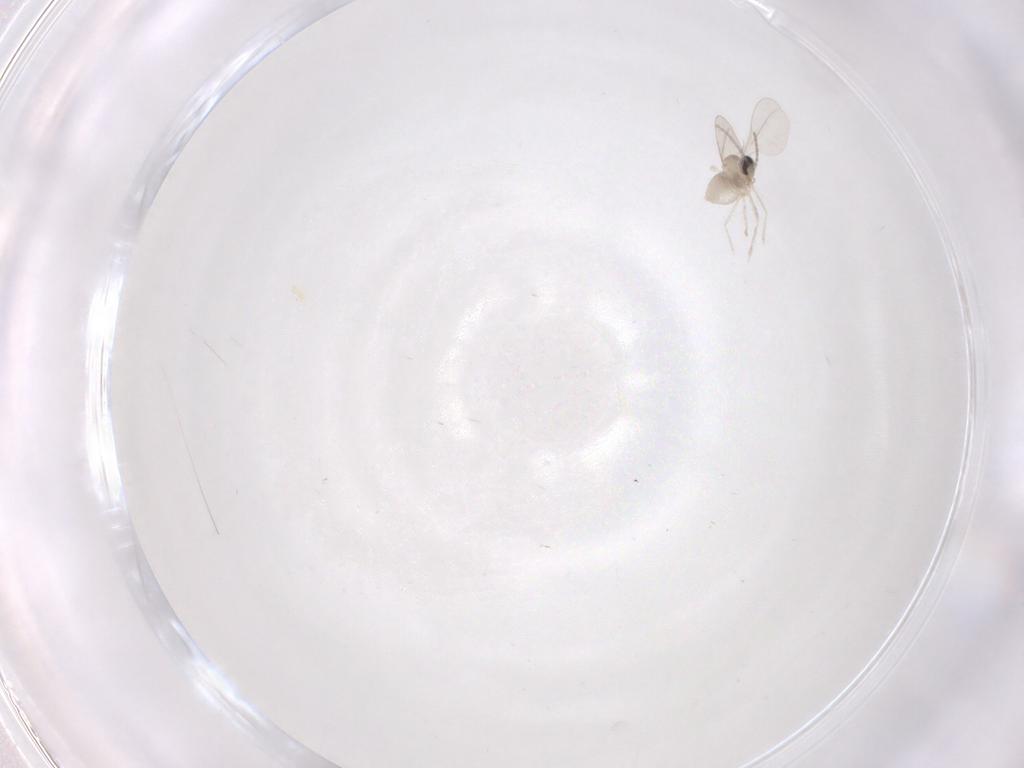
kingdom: Animalia
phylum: Arthropoda
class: Insecta
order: Diptera
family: Cecidomyiidae
